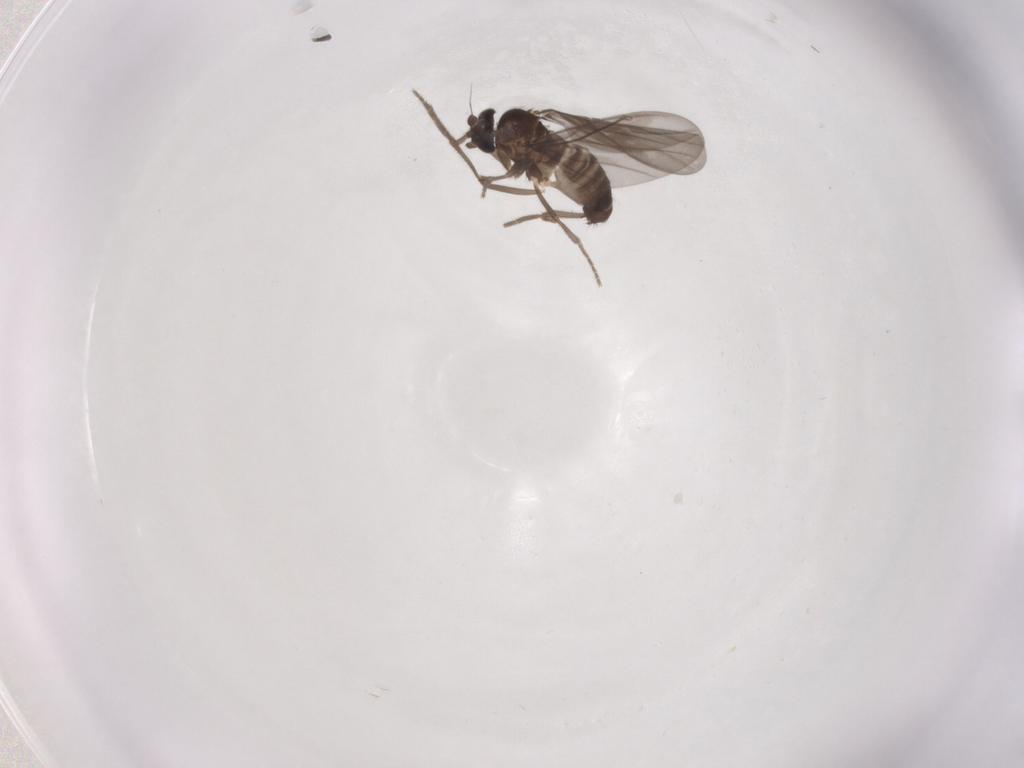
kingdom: Animalia
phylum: Arthropoda
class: Insecta
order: Diptera
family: Phoridae
